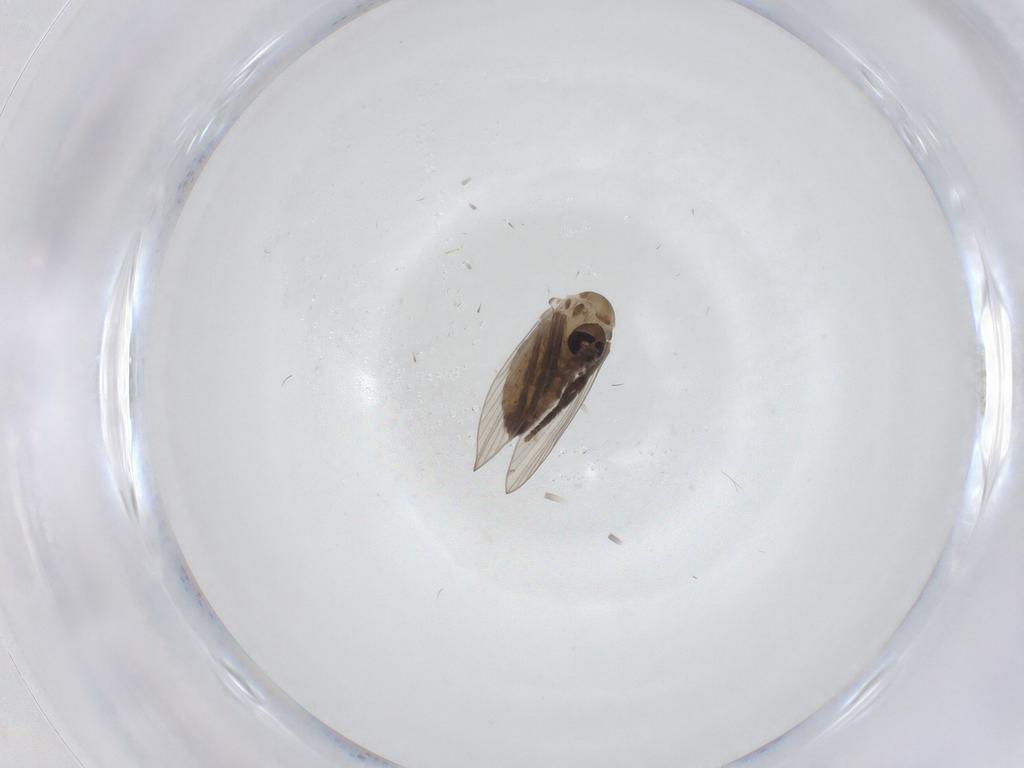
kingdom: Animalia
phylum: Arthropoda
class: Insecta
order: Diptera
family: Psychodidae
